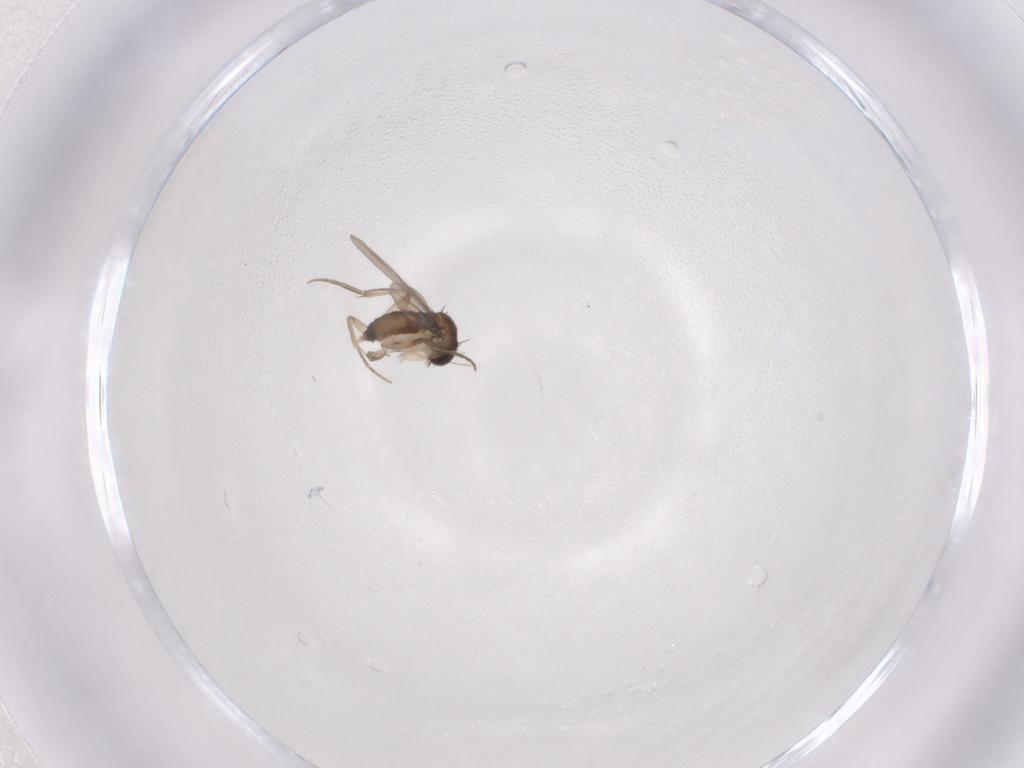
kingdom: Animalia
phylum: Arthropoda
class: Insecta
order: Diptera
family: Phoridae
